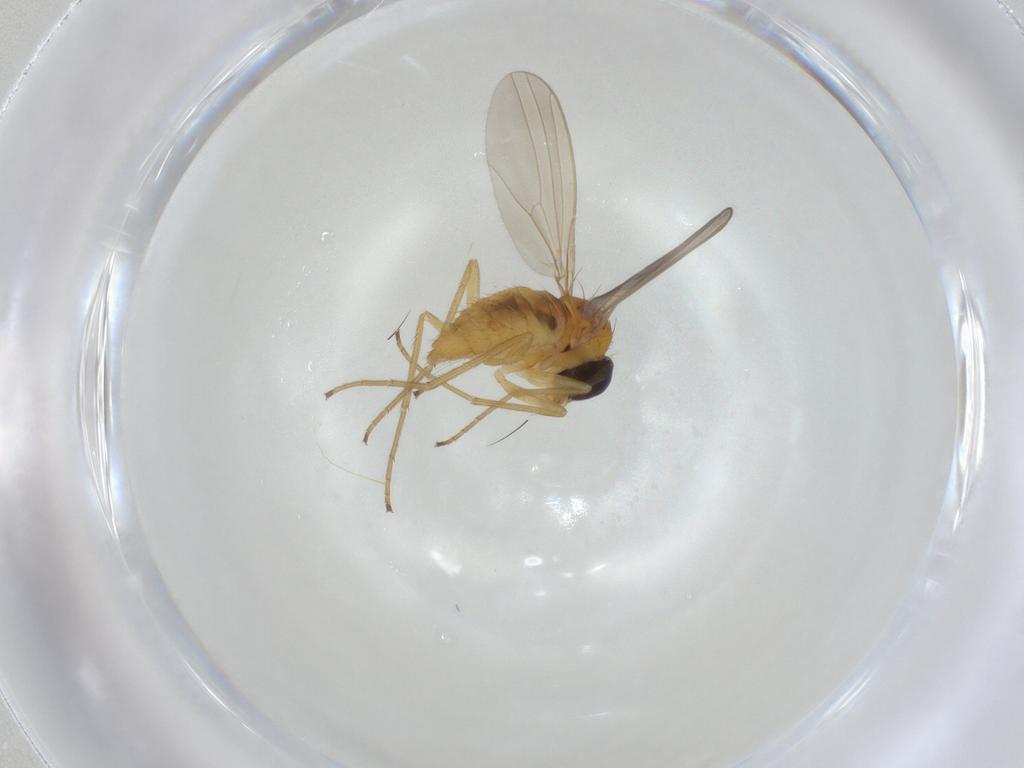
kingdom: Animalia
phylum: Arthropoda
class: Insecta
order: Diptera
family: Dolichopodidae
